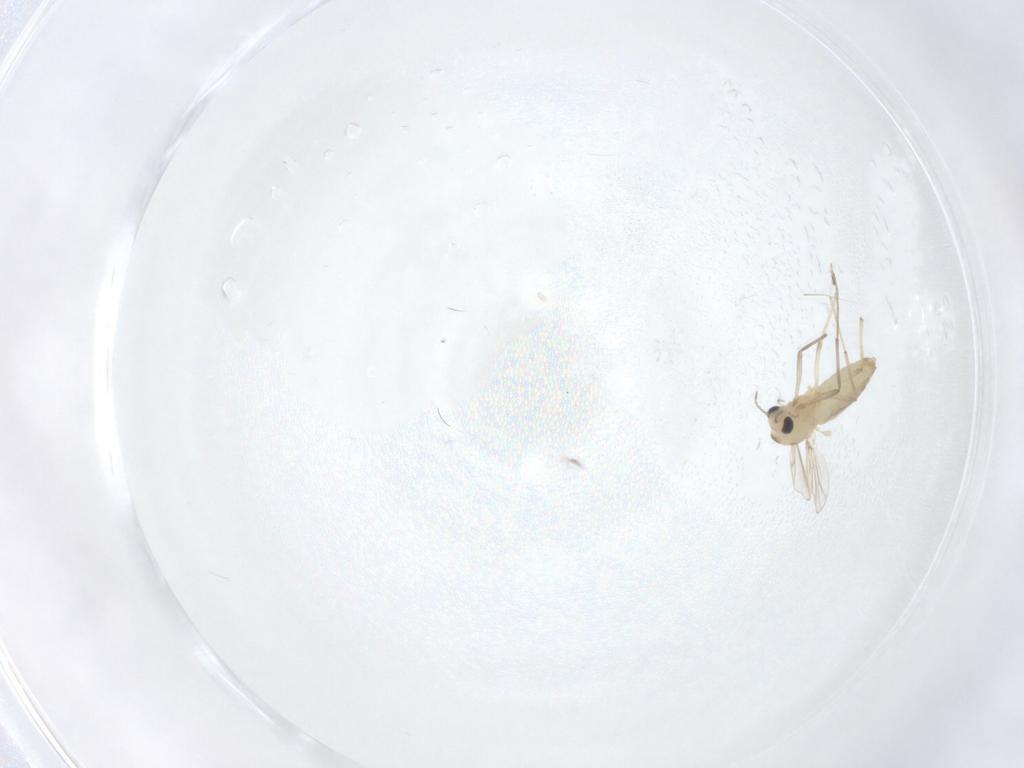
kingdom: Animalia
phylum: Arthropoda
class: Insecta
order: Diptera
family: Chironomidae
